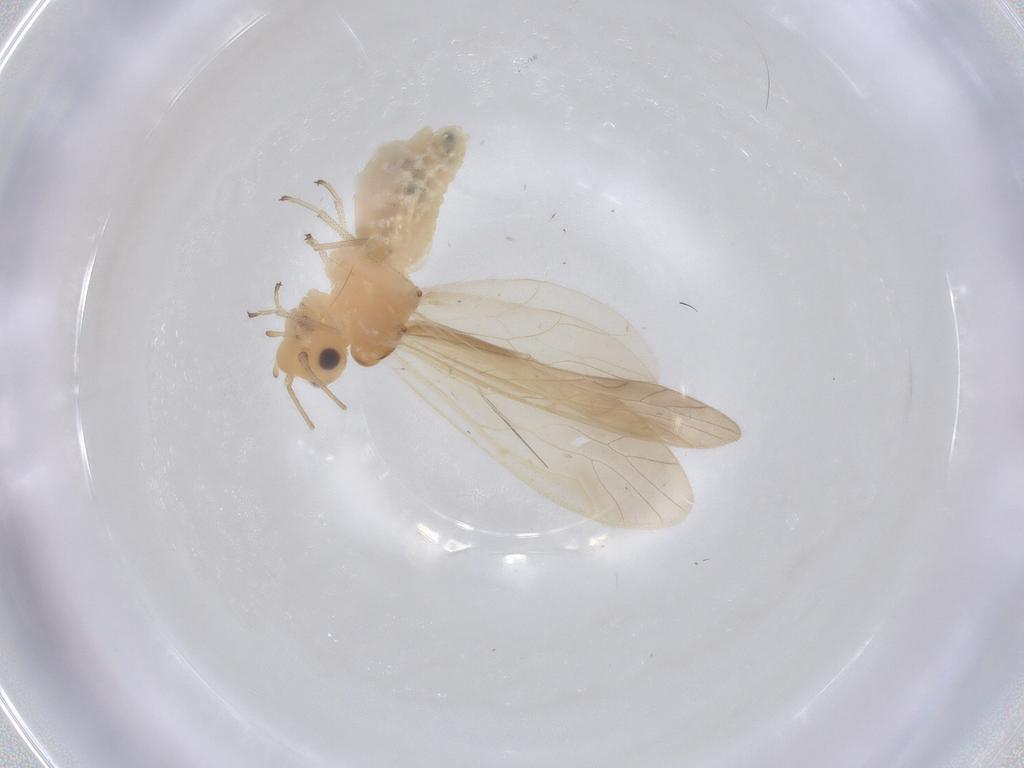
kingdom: Animalia
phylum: Arthropoda
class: Insecta
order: Psocodea
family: Caeciliusidae
